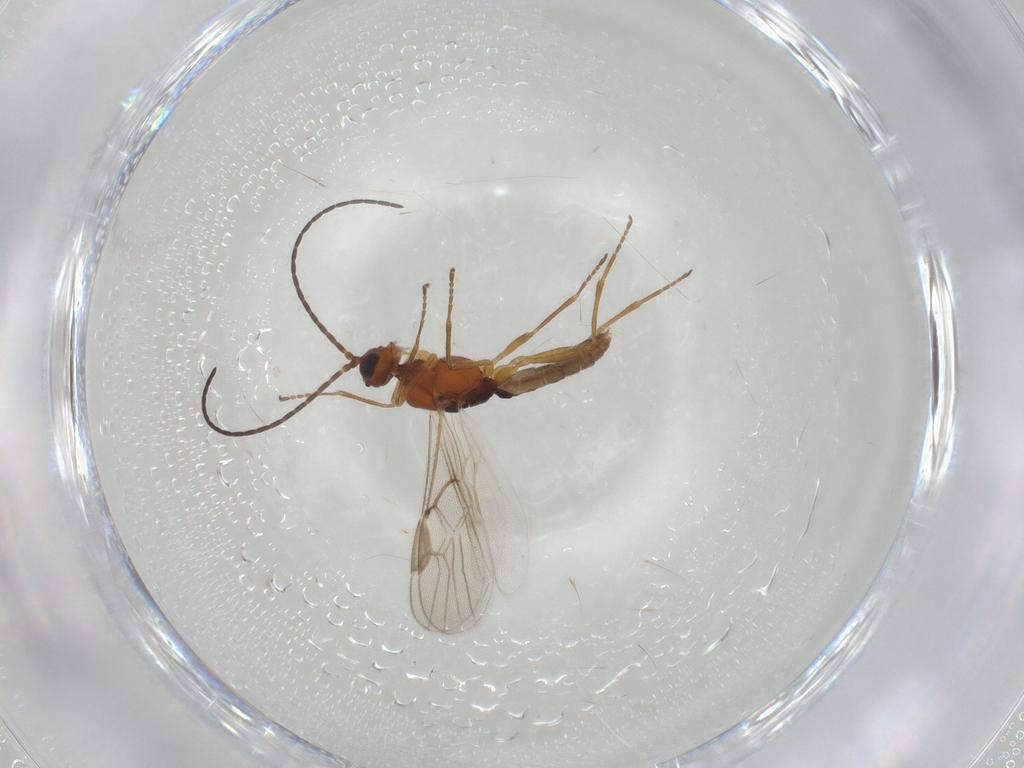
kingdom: Animalia
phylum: Arthropoda
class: Insecta
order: Hymenoptera
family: Braconidae
